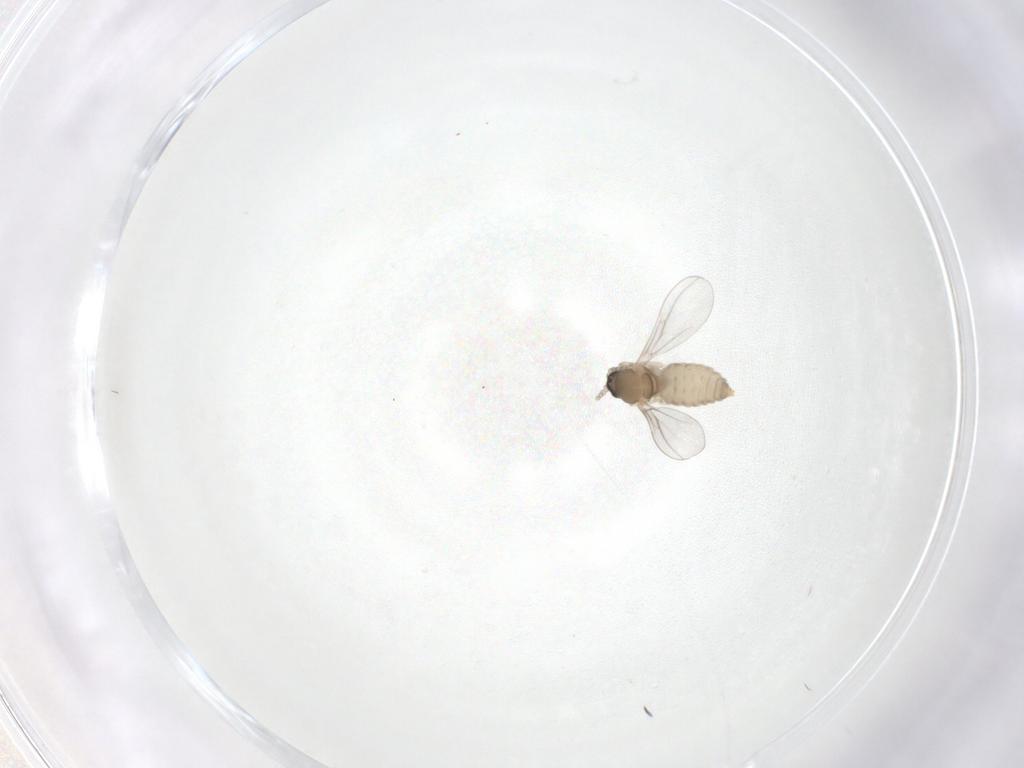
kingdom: Animalia
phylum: Arthropoda
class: Insecta
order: Diptera
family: Cecidomyiidae
